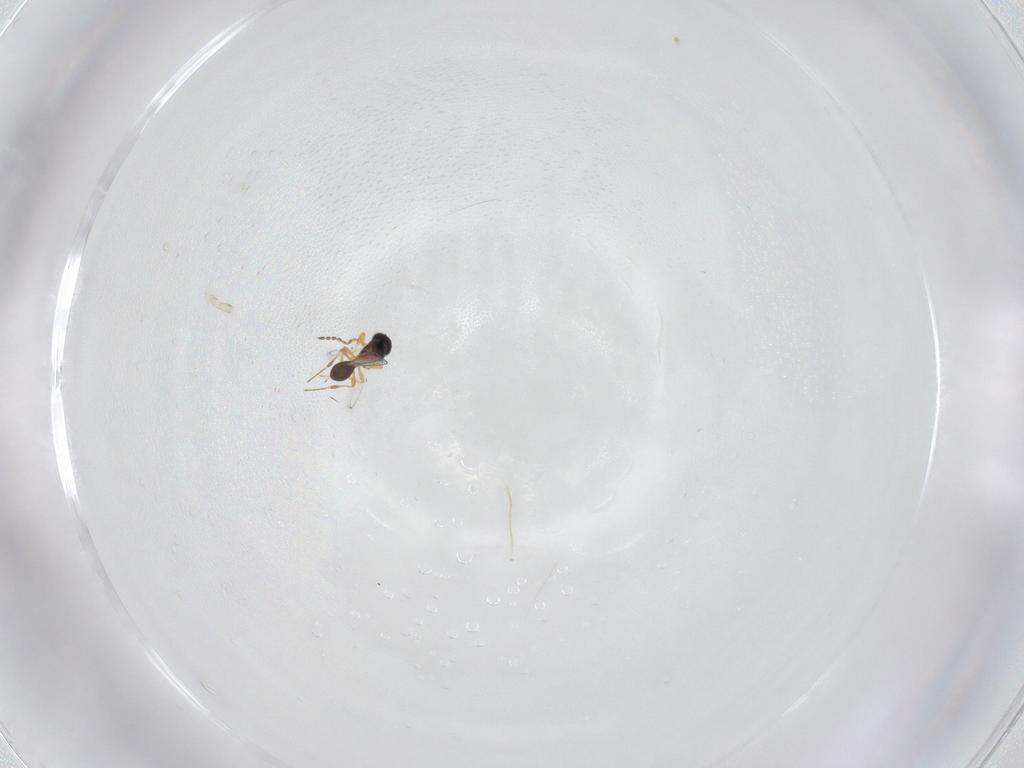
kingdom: Animalia
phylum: Arthropoda
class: Insecta
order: Hymenoptera
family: Platygastridae
